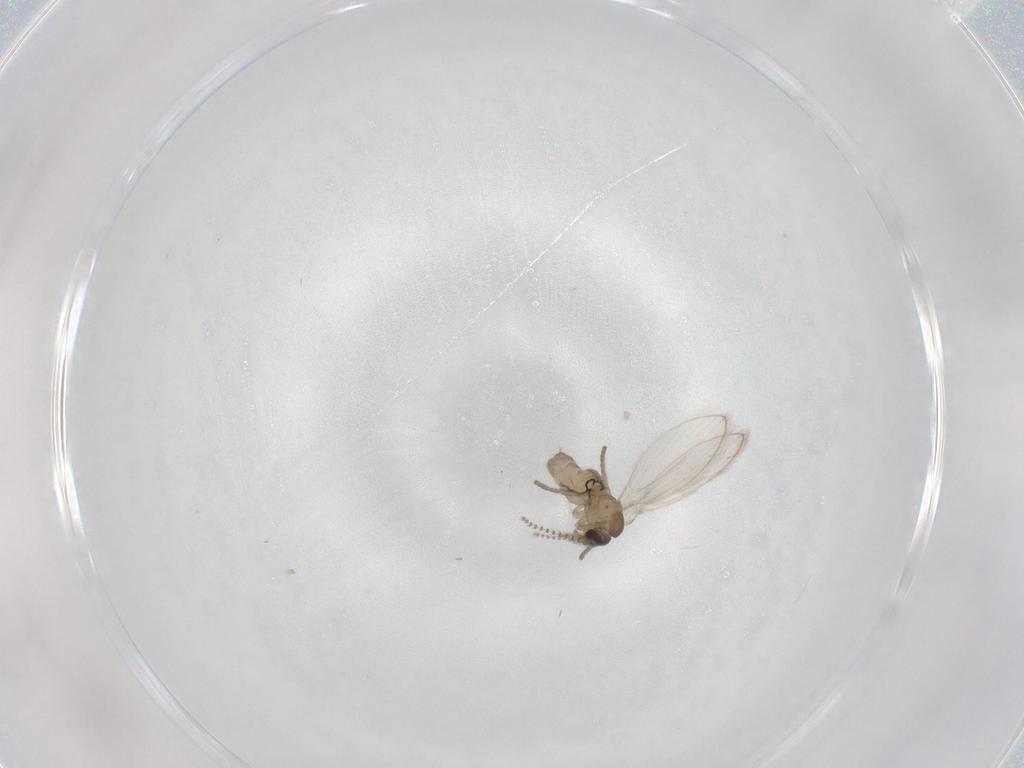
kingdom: Animalia
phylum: Arthropoda
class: Insecta
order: Diptera
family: Psychodidae
